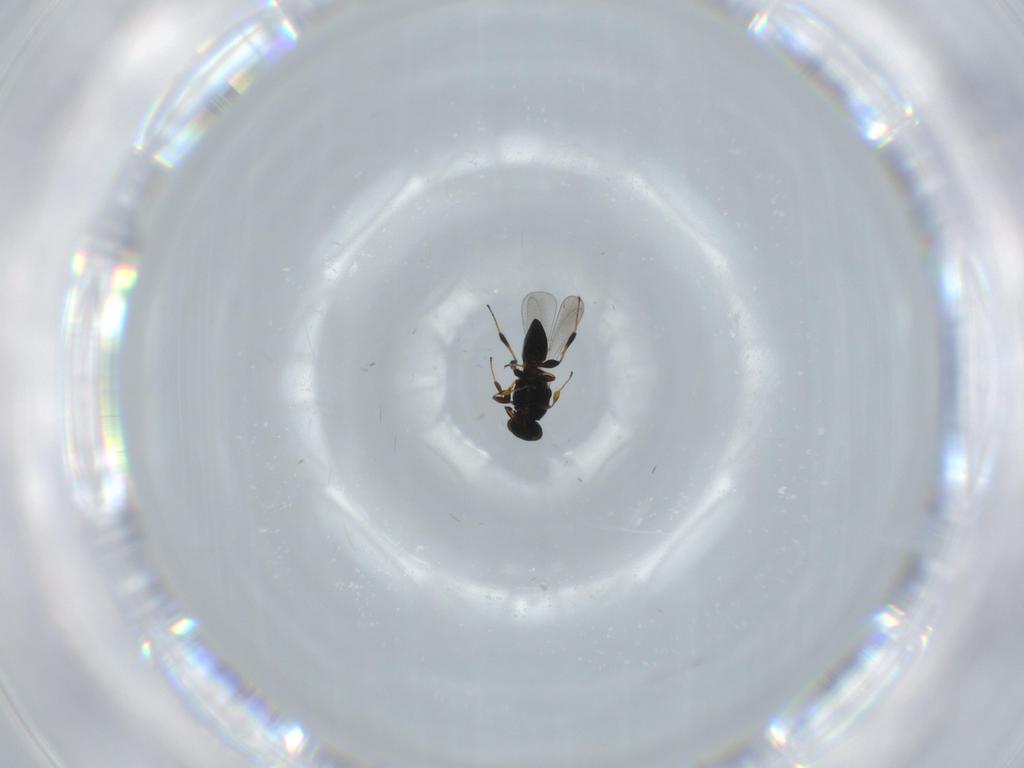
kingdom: Animalia
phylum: Arthropoda
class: Insecta
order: Hymenoptera
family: Platygastridae
